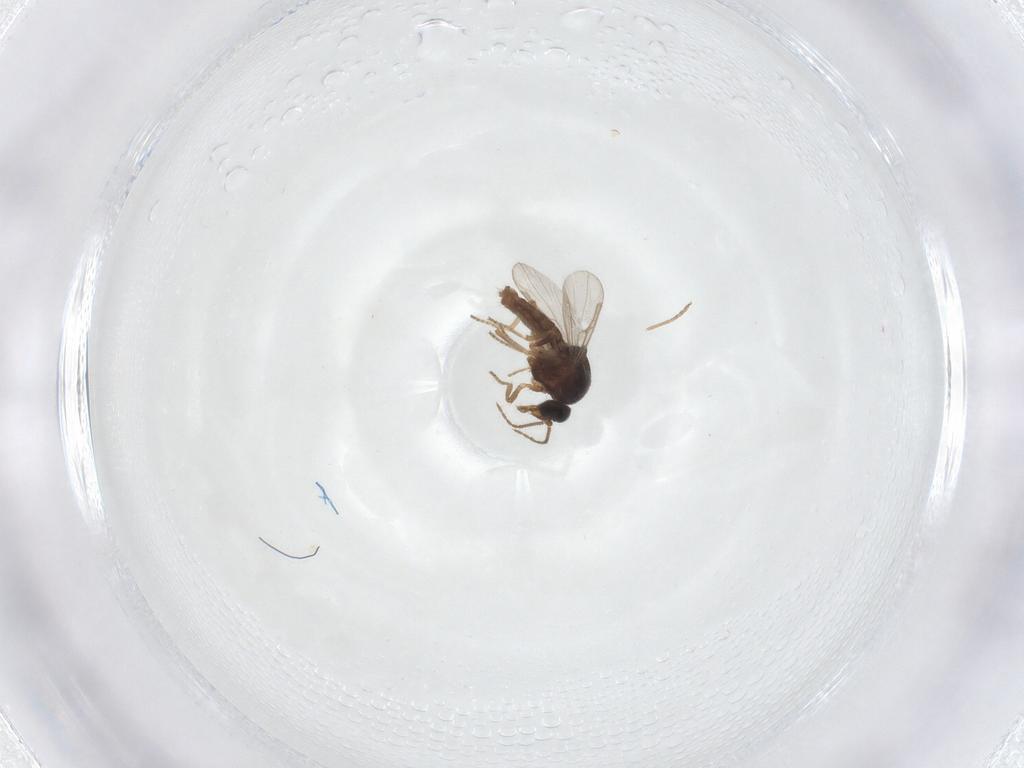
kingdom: Animalia
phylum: Arthropoda
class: Insecta
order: Diptera
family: Ceratopogonidae
